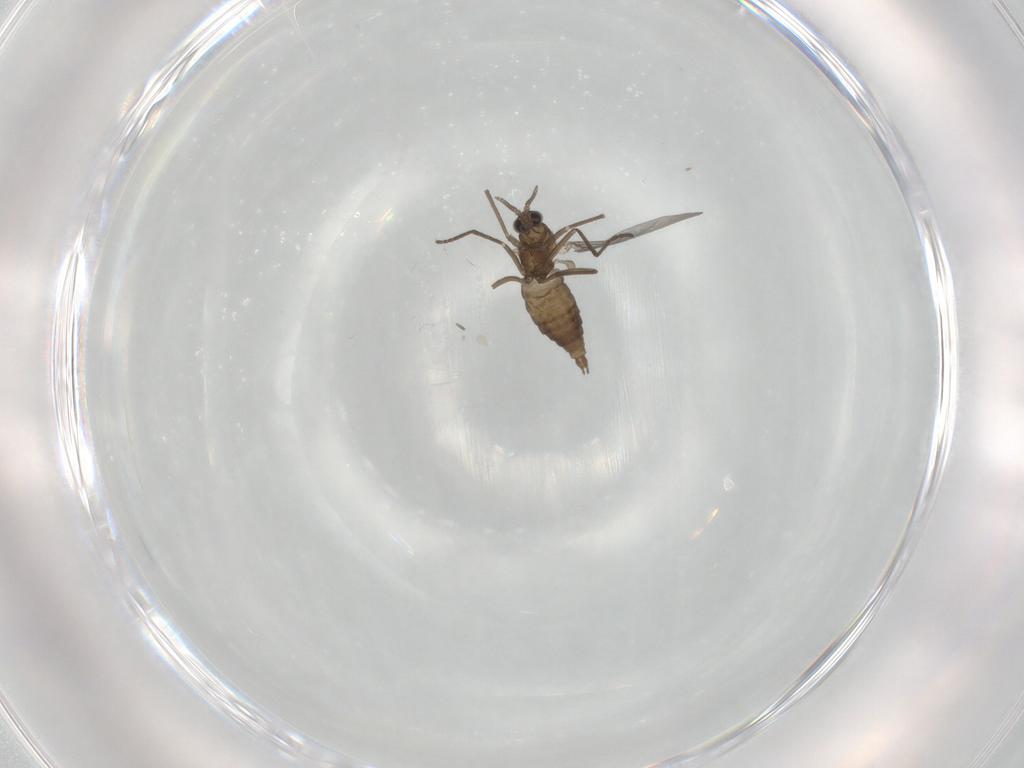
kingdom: Animalia
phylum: Arthropoda
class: Insecta
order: Diptera
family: Cecidomyiidae
